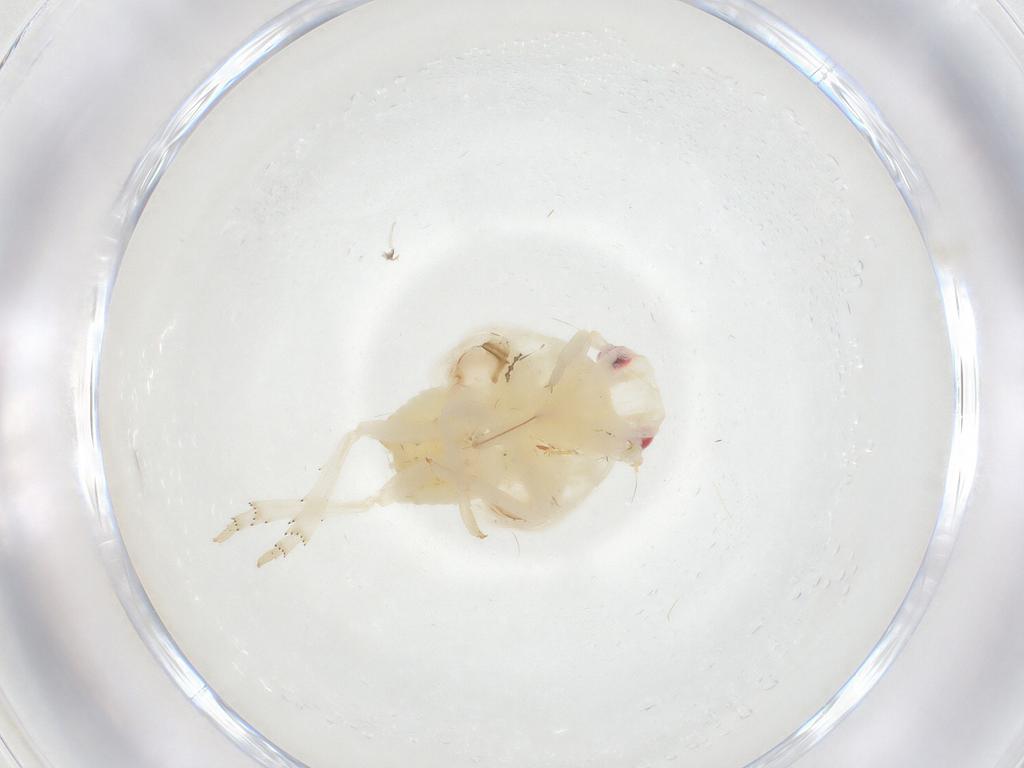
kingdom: Animalia
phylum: Arthropoda
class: Insecta
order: Hemiptera
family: Flatidae
